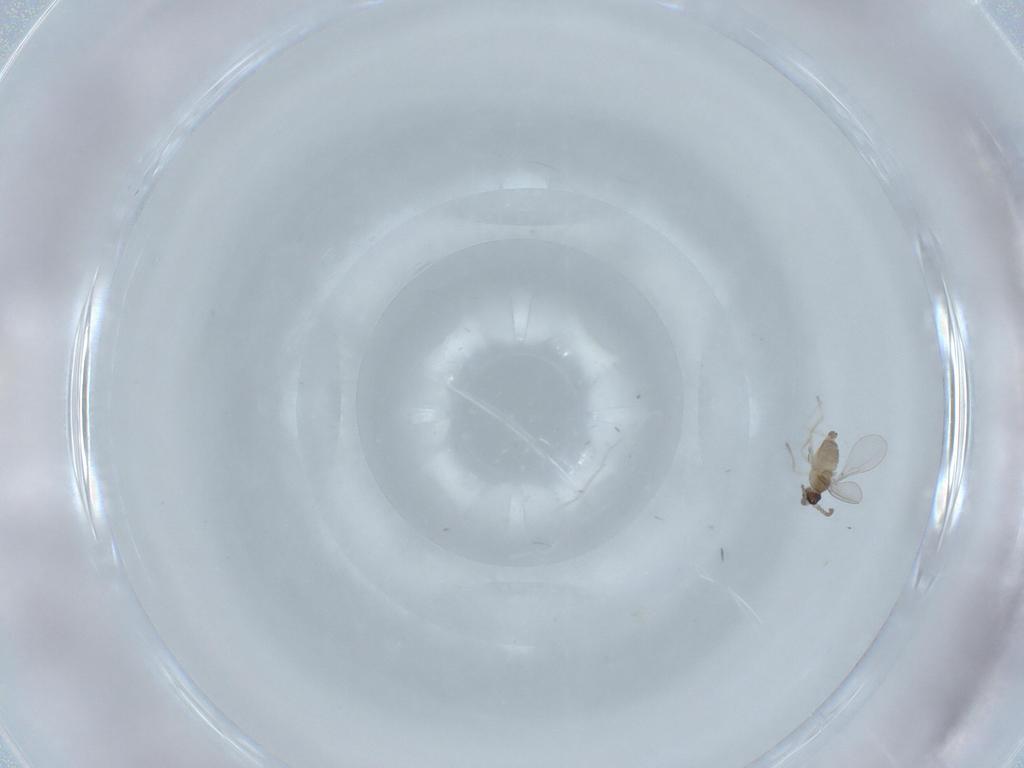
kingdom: Animalia
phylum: Arthropoda
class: Insecta
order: Diptera
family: Cecidomyiidae
